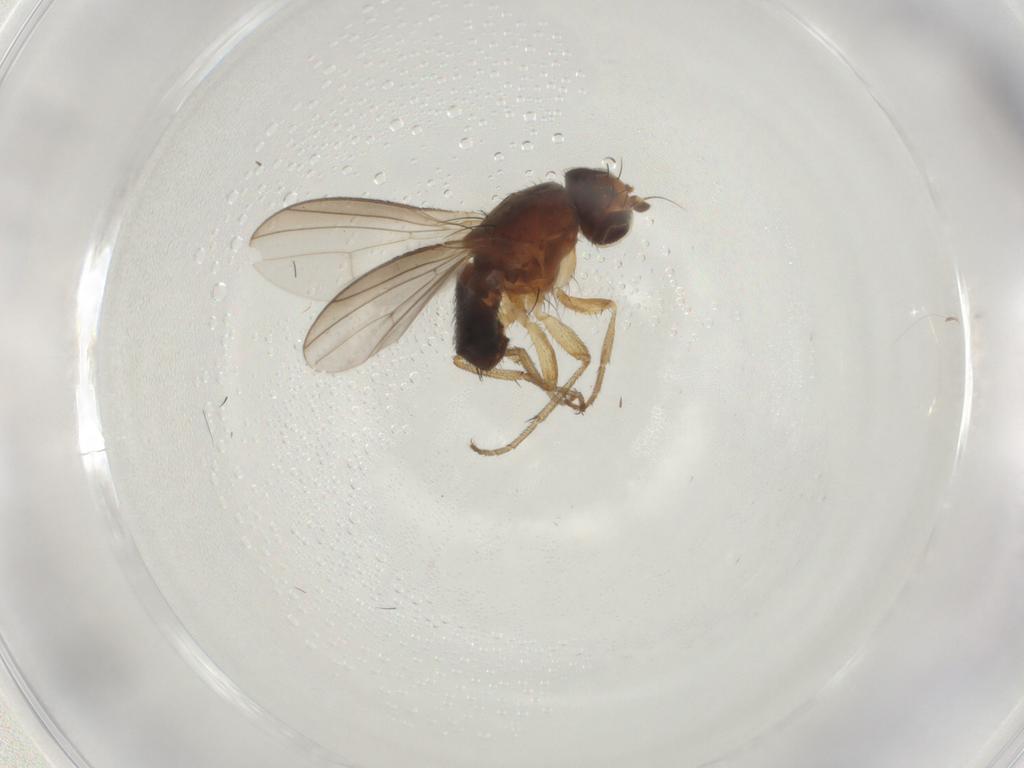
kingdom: Animalia
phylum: Arthropoda
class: Insecta
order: Diptera
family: Heleomyzidae
